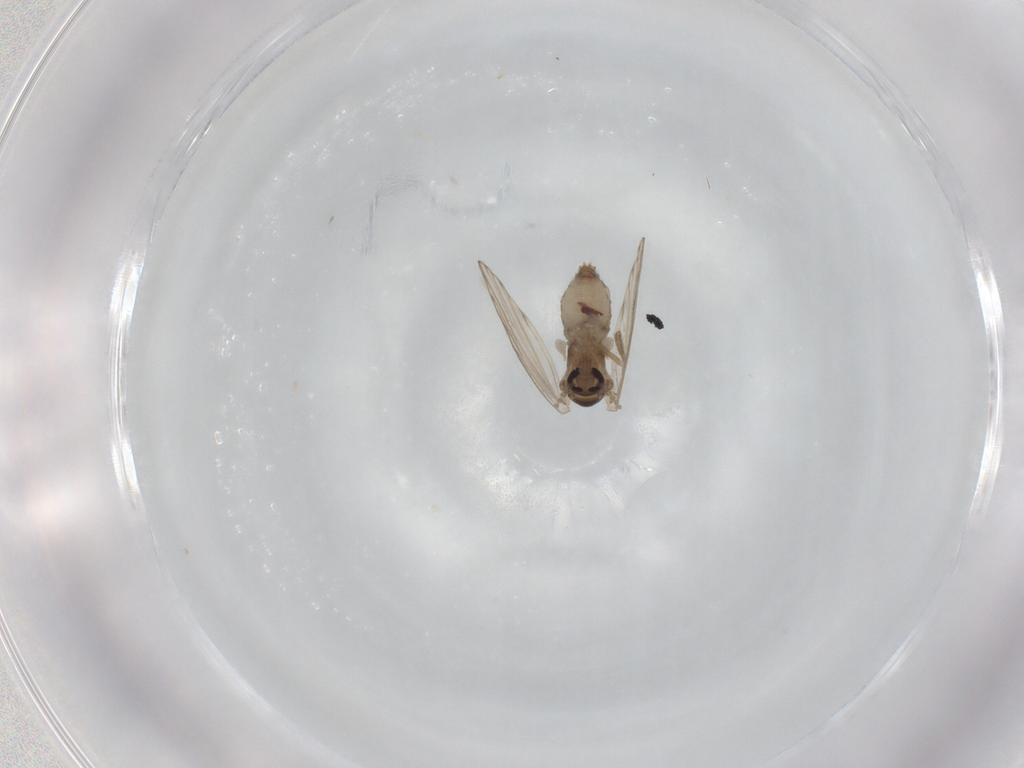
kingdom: Animalia
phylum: Arthropoda
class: Insecta
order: Diptera
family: Psychodidae
